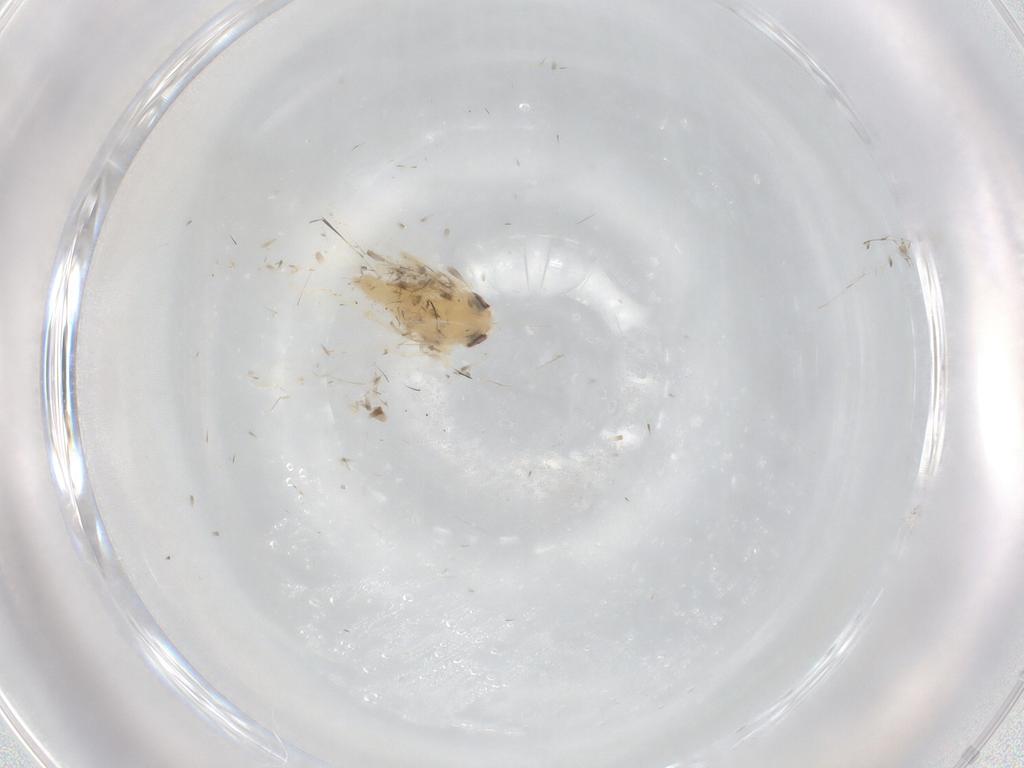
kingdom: Animalia
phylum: Arthropoda
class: Insecta
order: Hemiptera
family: Cicadellidae
